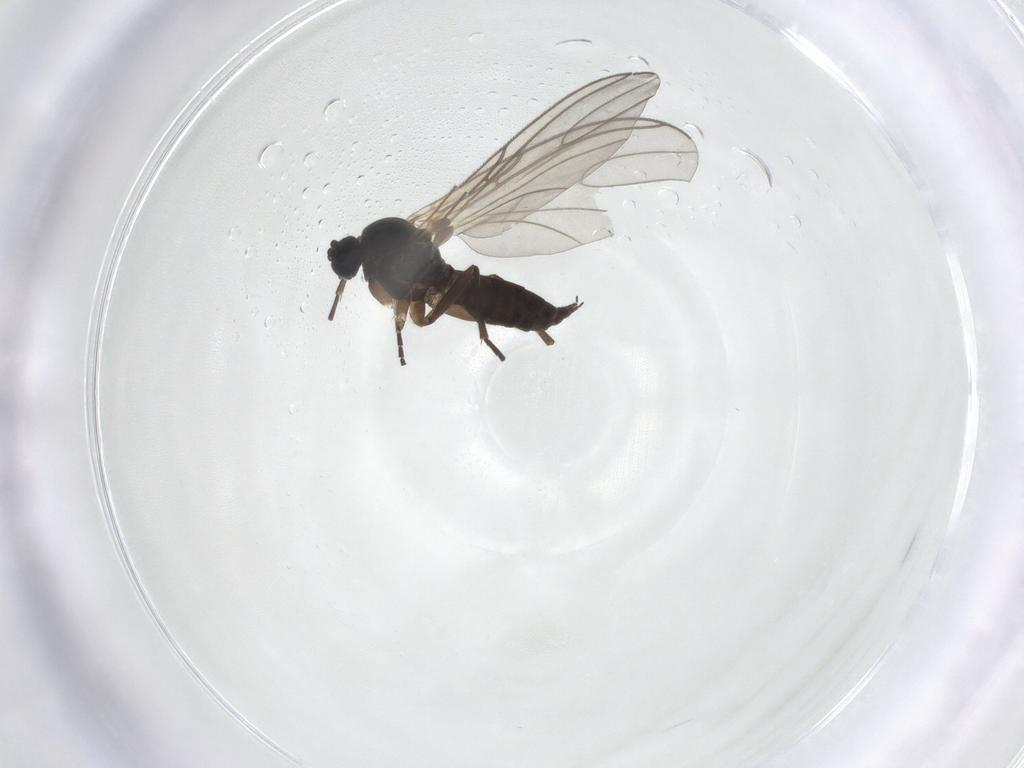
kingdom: Animalia
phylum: Arthropoda
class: Insecta
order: Diptera
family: Sciaridae
